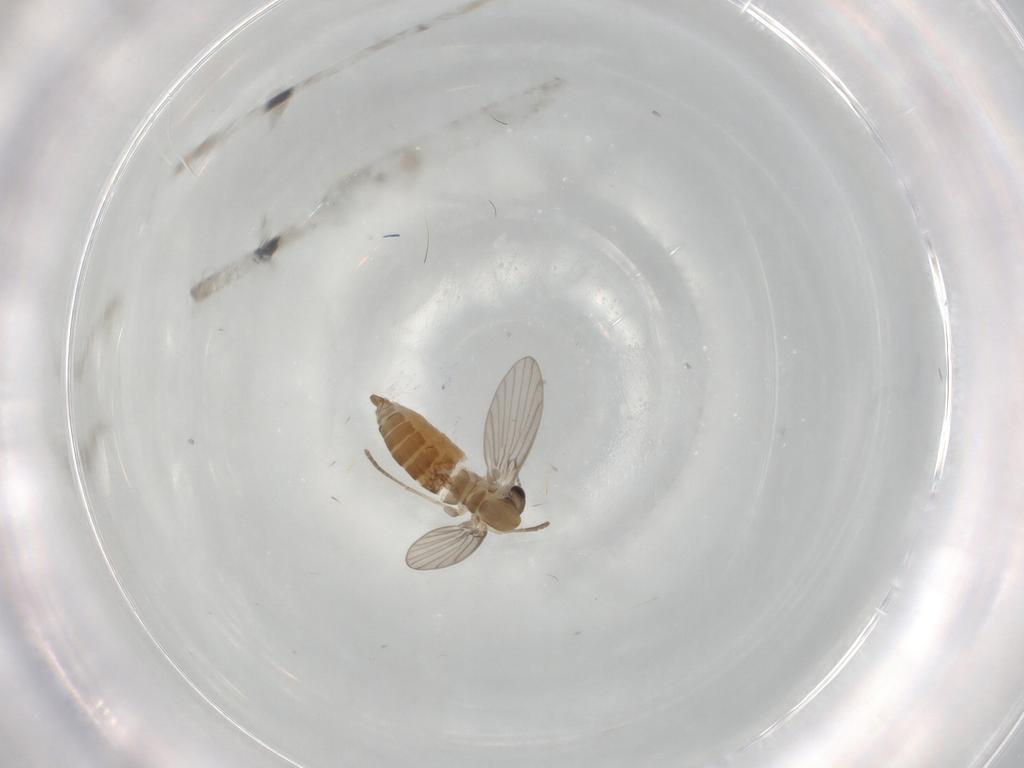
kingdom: Animalia
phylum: Arthropoda
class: Insecta
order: Diptera
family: Psychodidae
